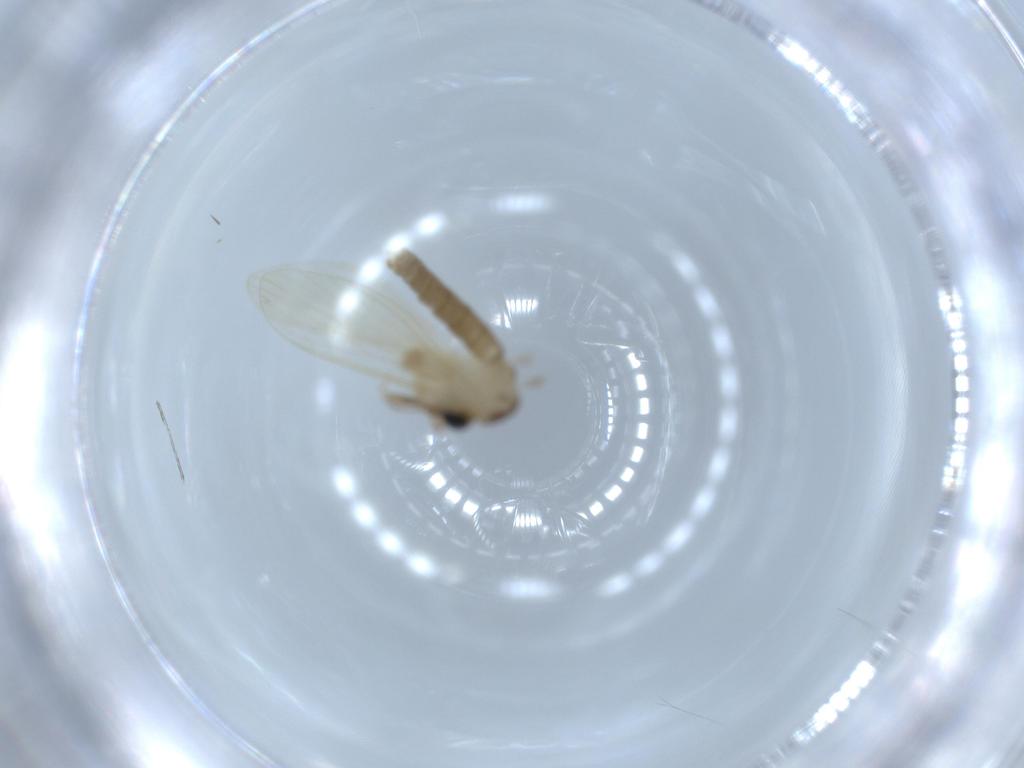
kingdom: Animalia
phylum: Arthropoda
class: Insecta
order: Diptera
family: Psychodidae
